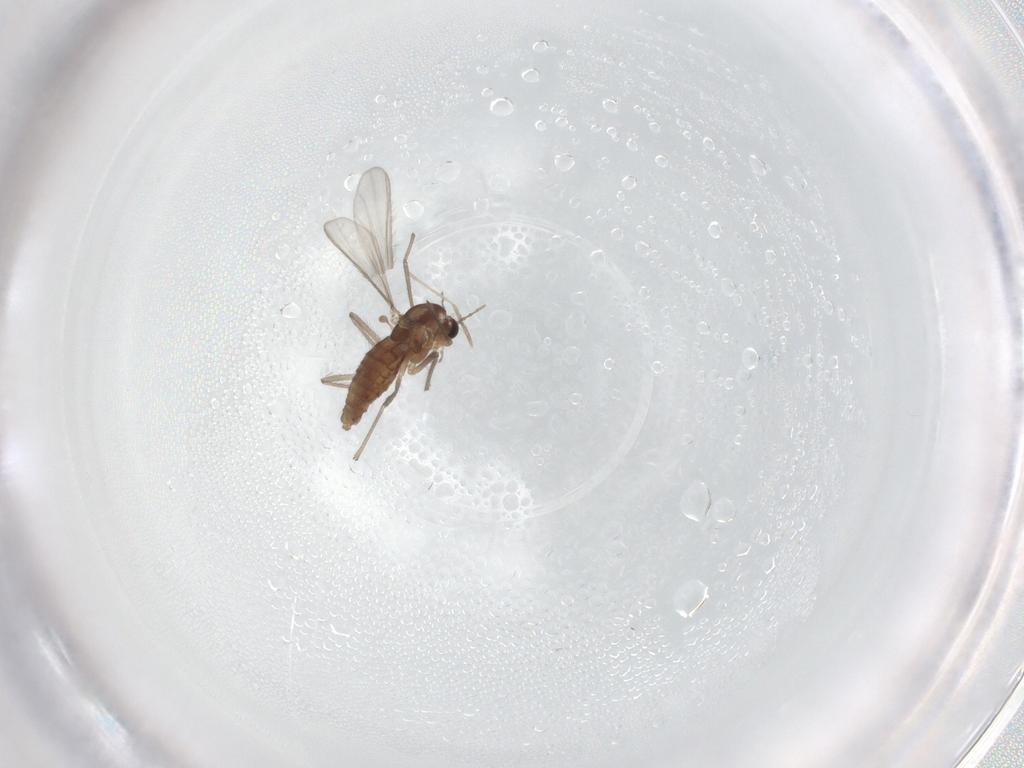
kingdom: Animalia
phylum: Arthropoda
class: Insecta
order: Diptera
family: Chironomidae
